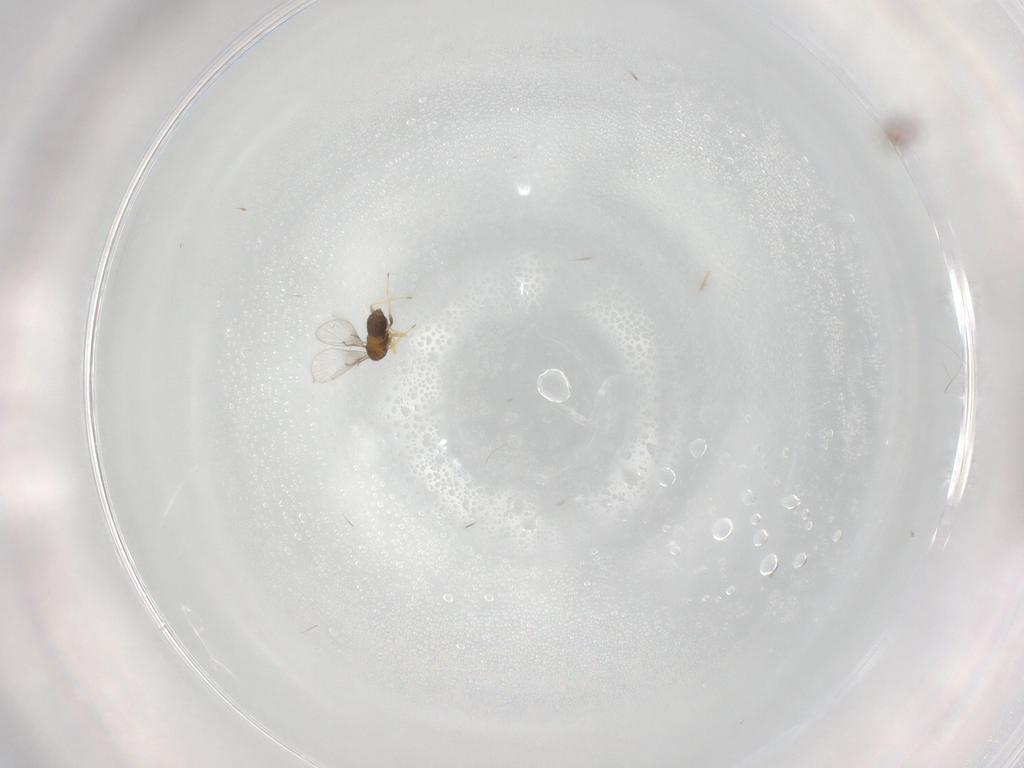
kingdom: Animalia
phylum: Arthropoda
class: Insecta
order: Hymenoptera
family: Trichogrammatidae
